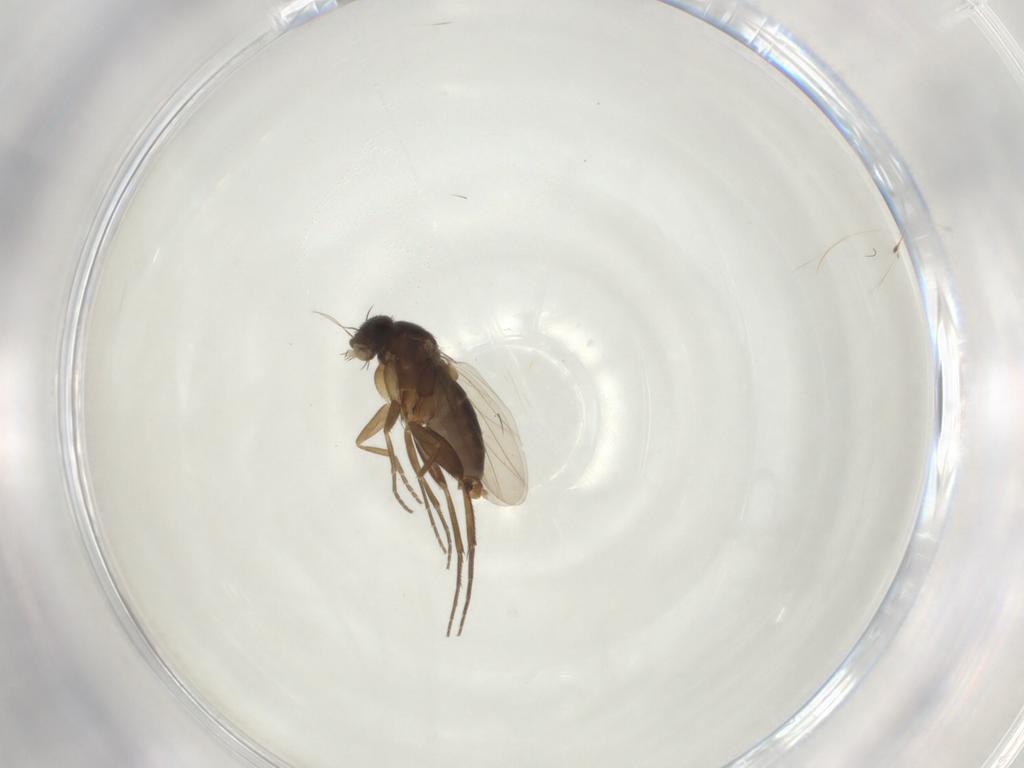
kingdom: Animalia
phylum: Arthropoda
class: Insecta
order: Diptera
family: Phoridae
